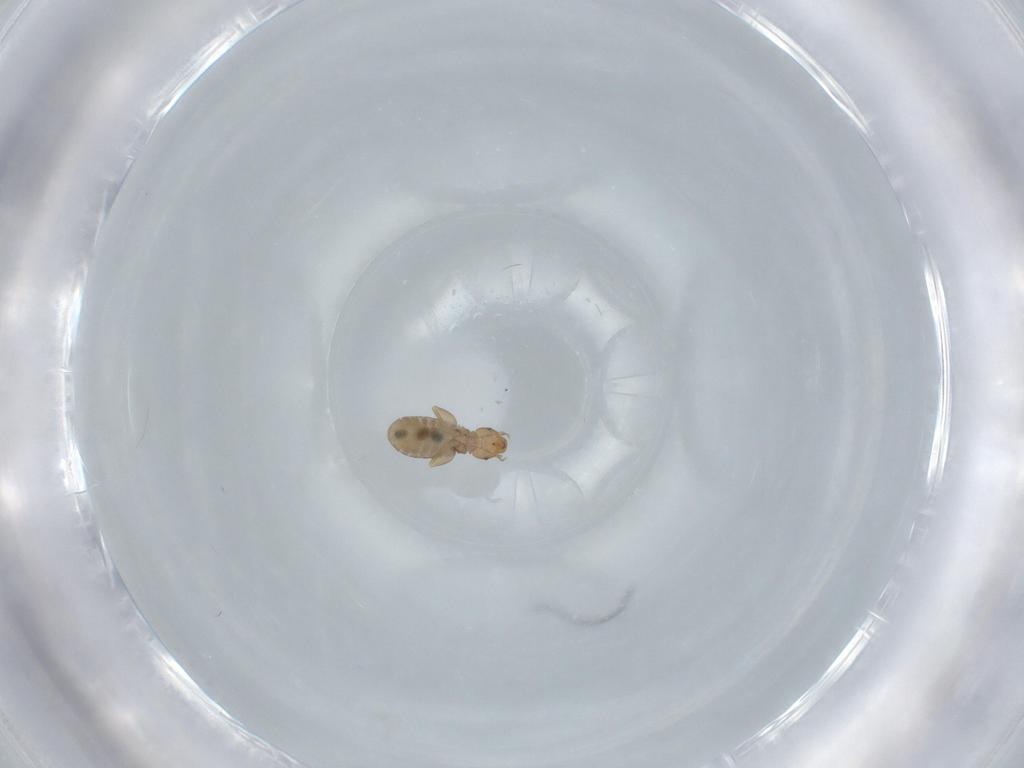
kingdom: Animalia
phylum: Arthropoda
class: Insecta
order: Psocodea
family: Liposcelididae
